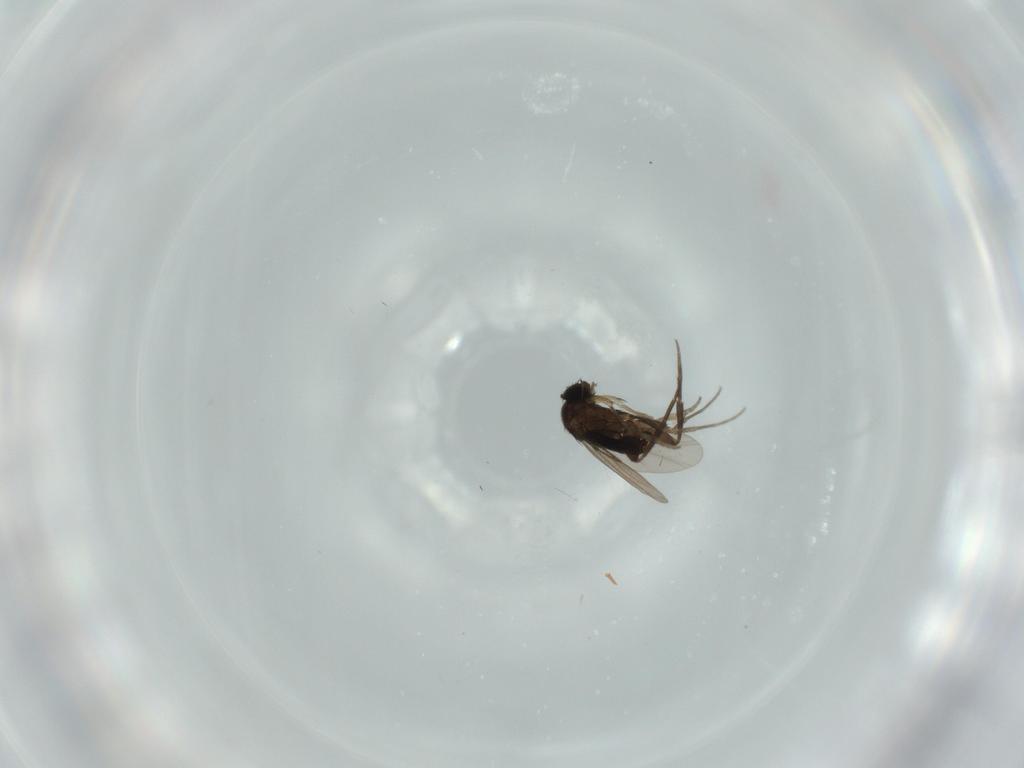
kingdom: Animalia
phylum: Arthropoda
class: Insecta
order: Diptera
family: Phoridae
